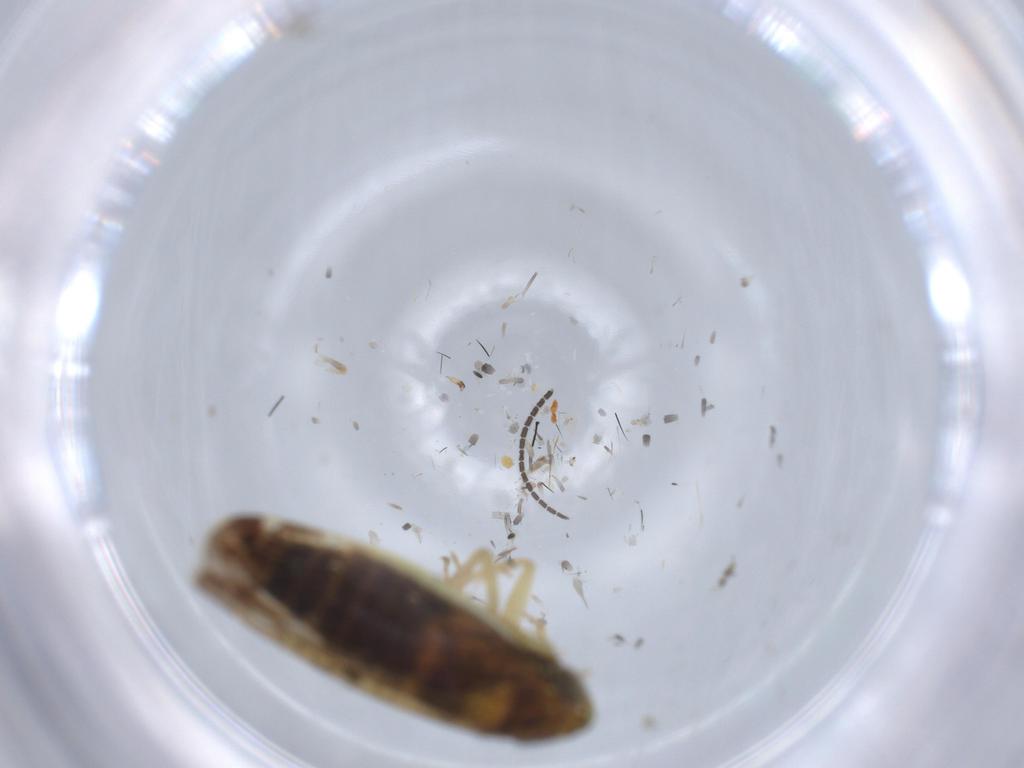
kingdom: Animalia
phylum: Arthropoda
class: Insecta
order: Hemiptera
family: Cicadellidae
